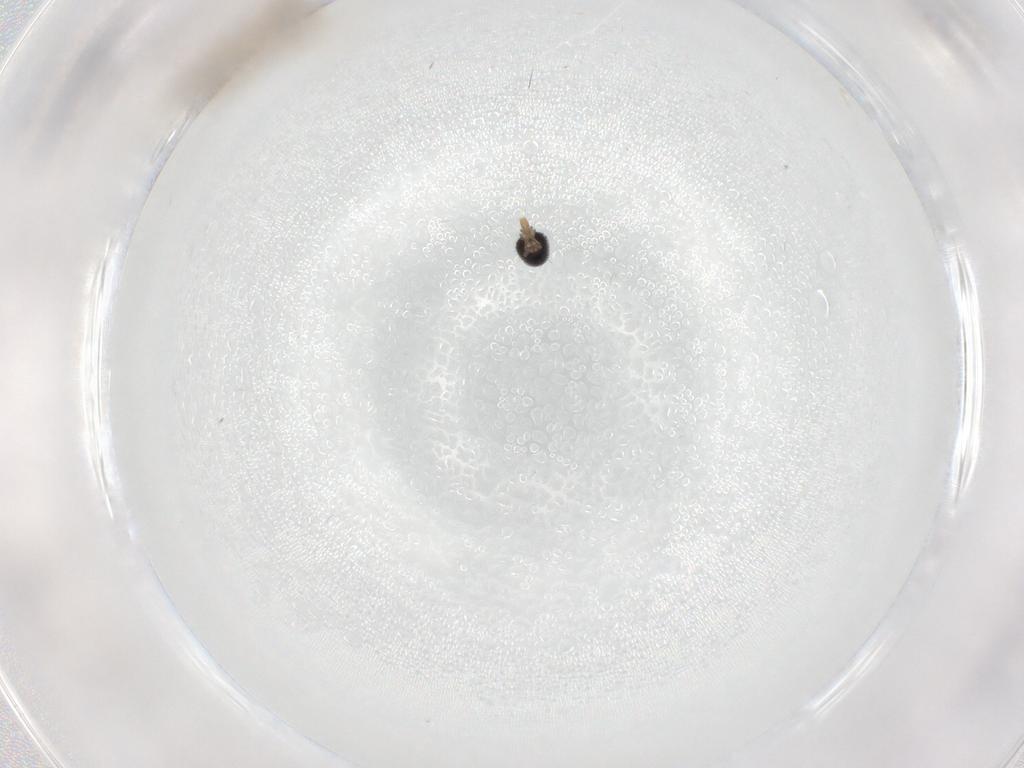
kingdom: Animalia
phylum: Arthropoda
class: Insecta
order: Diptera
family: Cecidomyiidae
